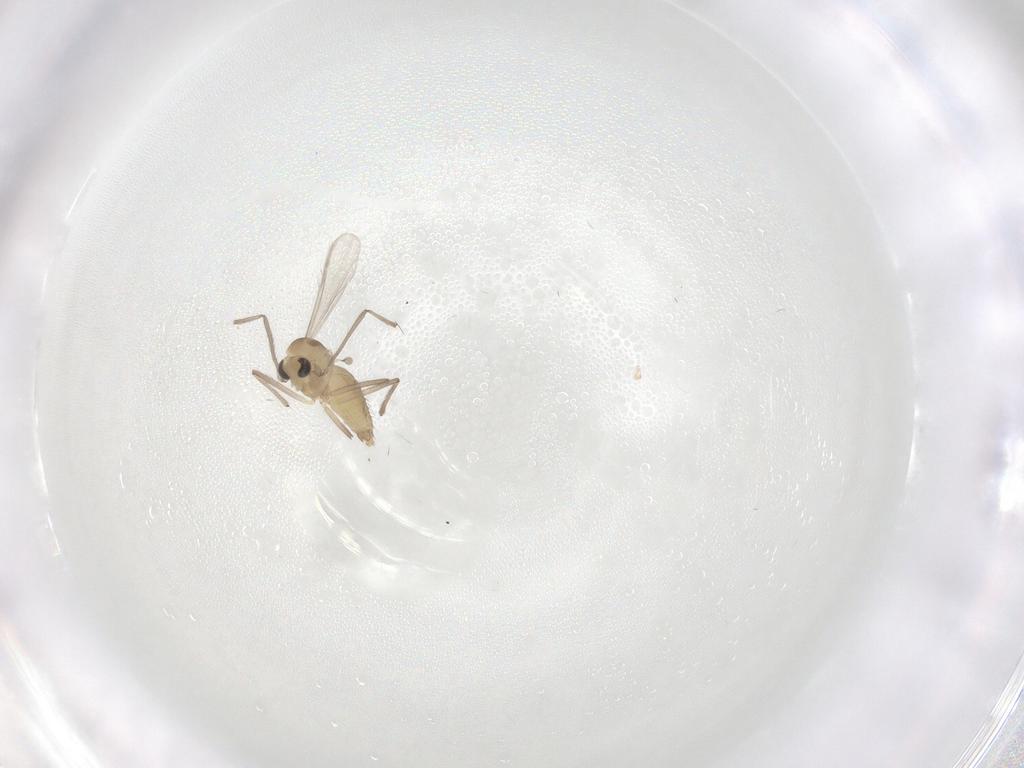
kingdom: Animalia
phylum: Arthropoda
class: Insecta
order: Diptera
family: Chironomidae
